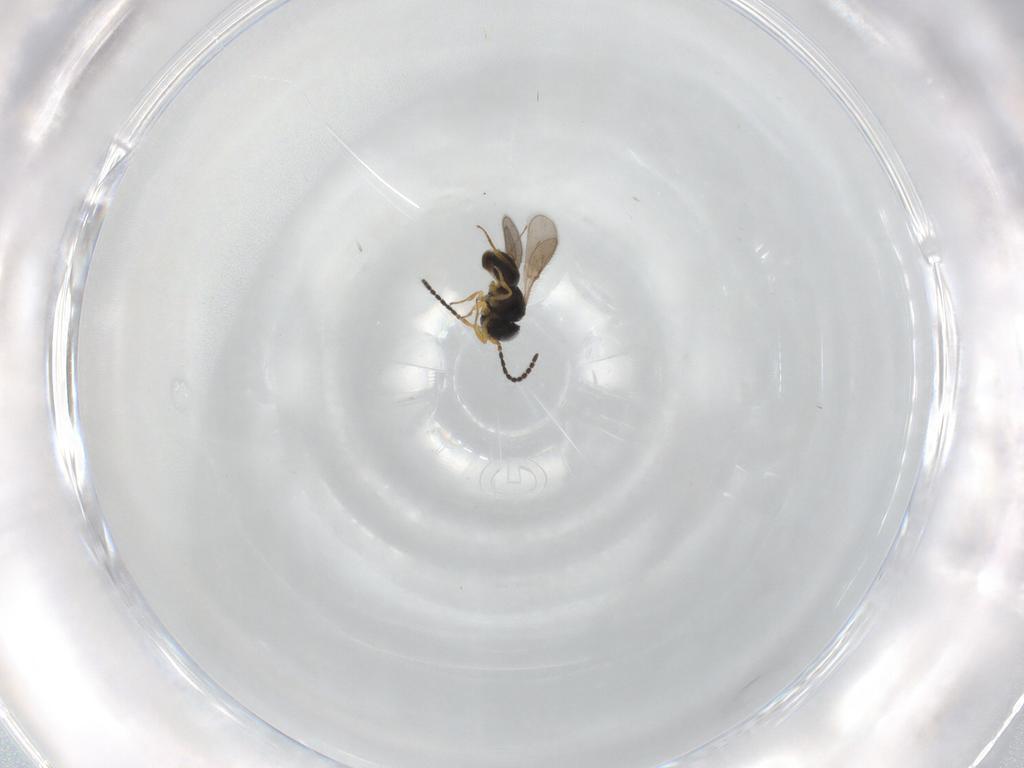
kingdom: Animalia
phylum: Arthropoda
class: Insecta
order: Hymenoptera
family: Scelionidae
